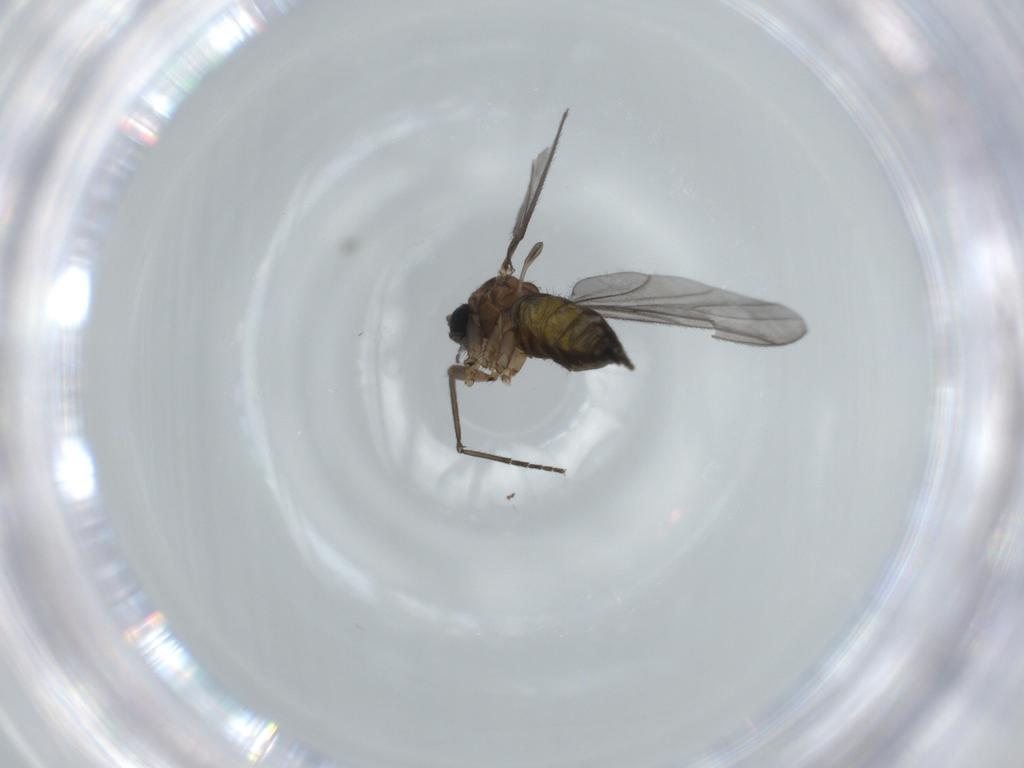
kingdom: Animalia
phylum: Arthropoda
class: Insecta
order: Diptera
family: Sciaridae
